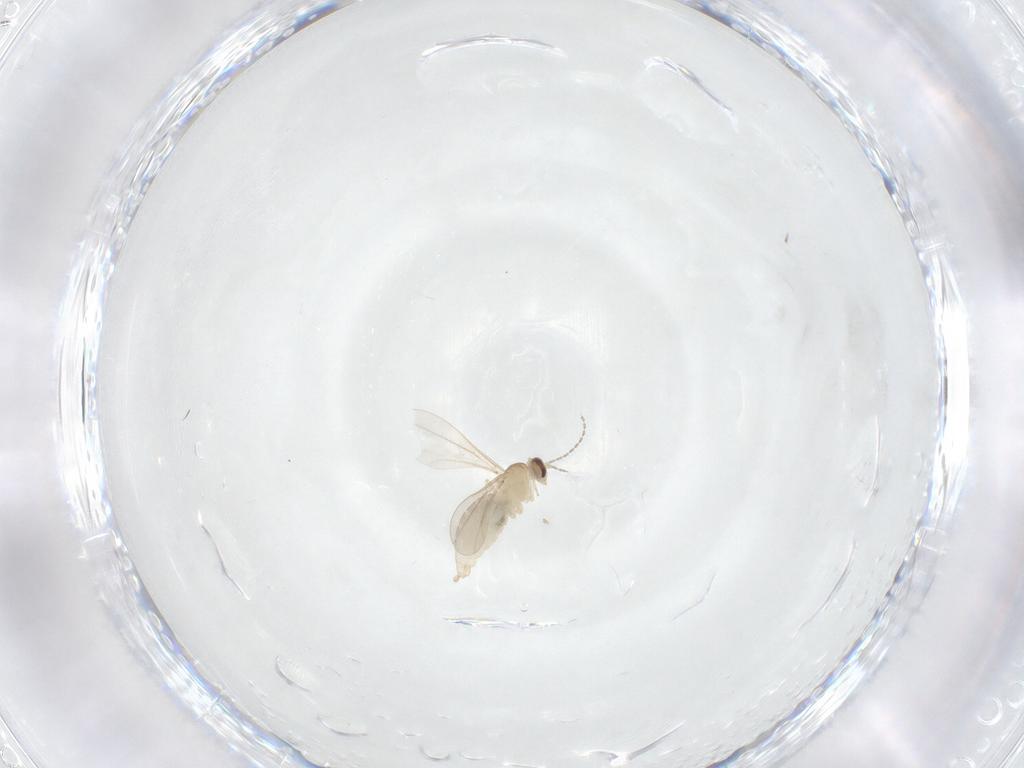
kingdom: Animalia
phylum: Arthropoda
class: Insecta
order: Diptera
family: Cecidomyiidae
